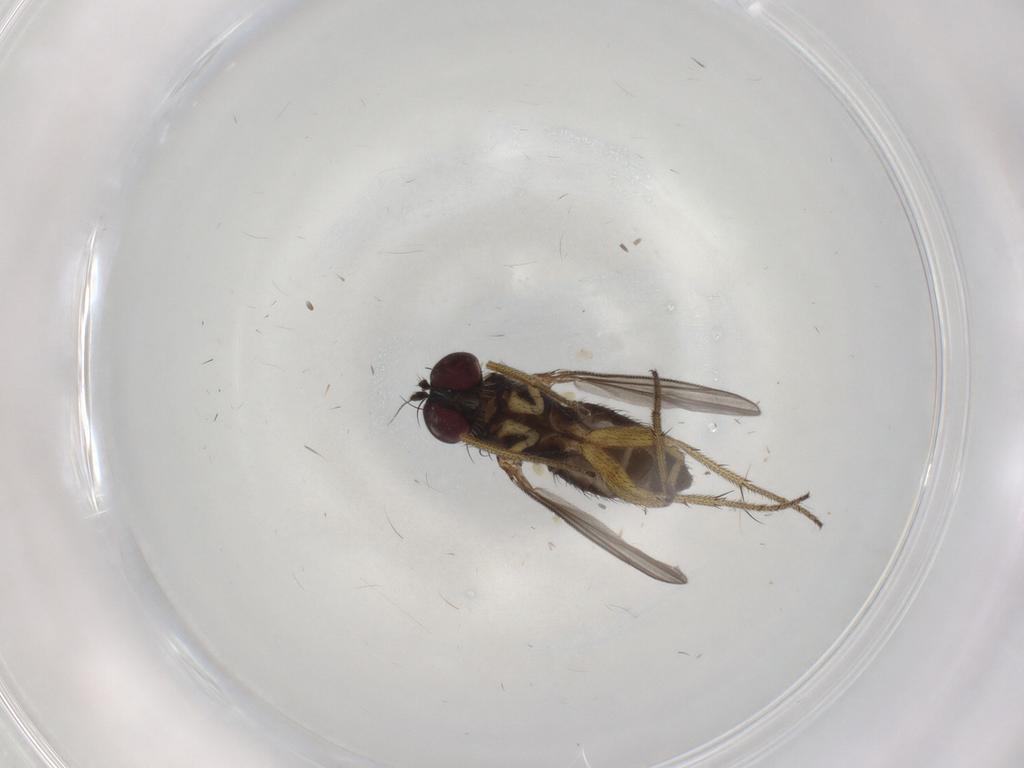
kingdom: Animalia
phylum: Arthropoda
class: Insecta
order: Diptera
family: Dolichopodidae
